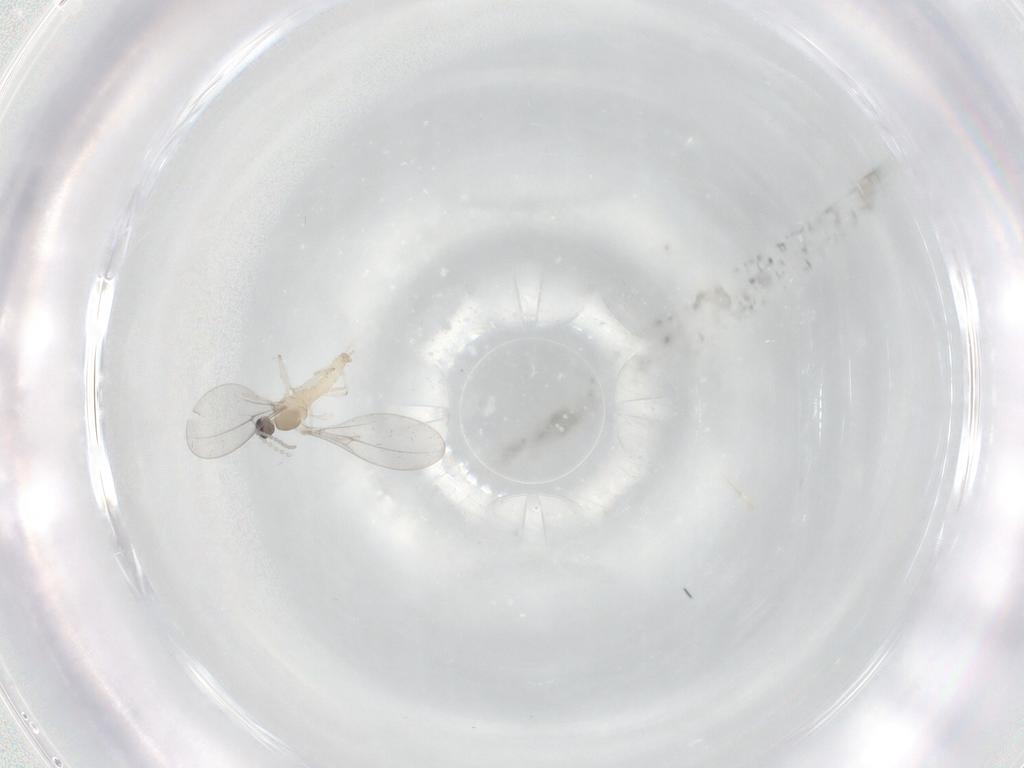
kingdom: Animalia
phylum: Arthropoda
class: Insecta
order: Diptera
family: Cecidomyiidae
